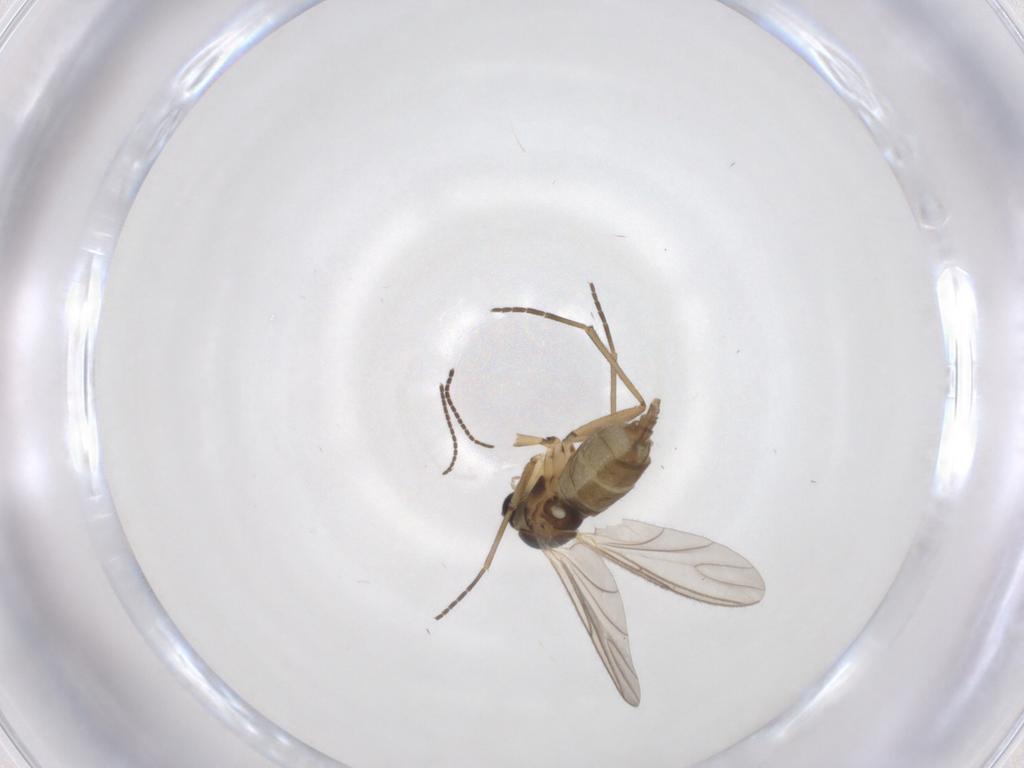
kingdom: Animalia
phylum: Arthropoda
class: Insecta
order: Diptera
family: Sciaridae
